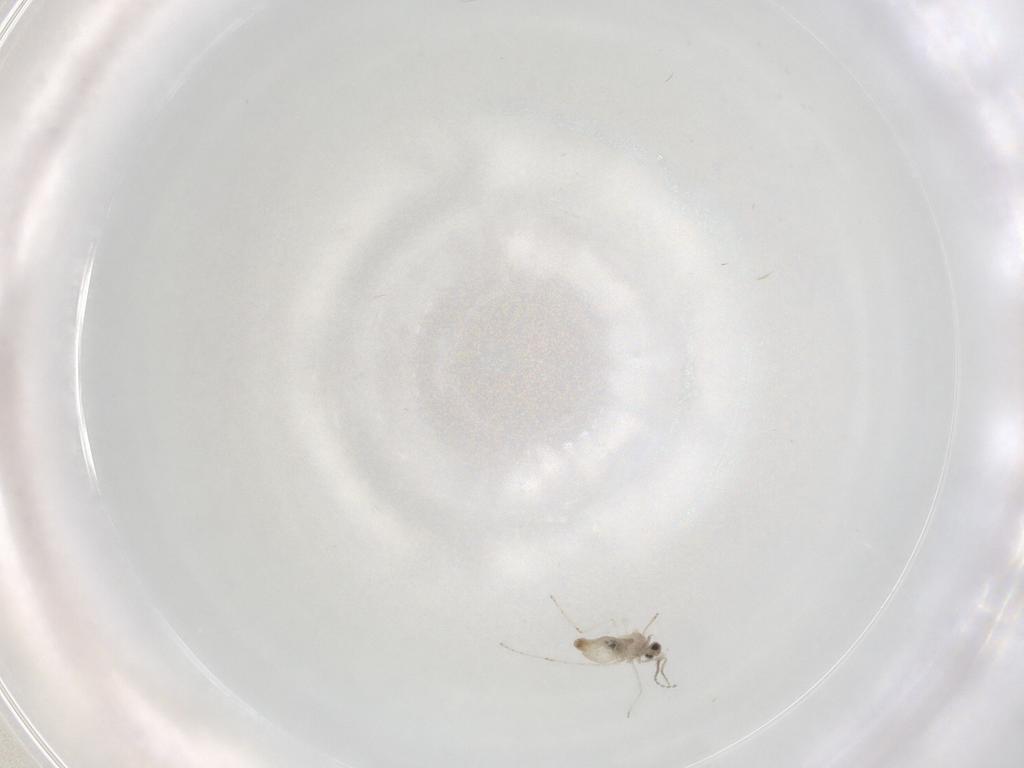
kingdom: Animalia
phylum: Arthropoda
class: Insecta
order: Diptera
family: Cecidomyiidae
